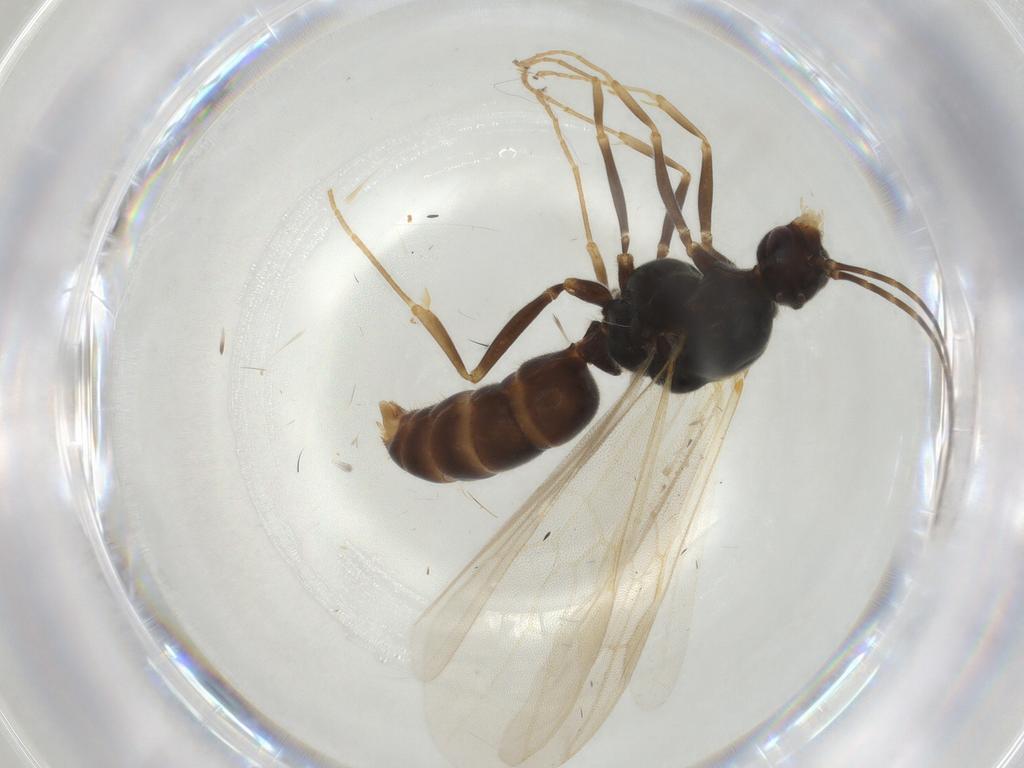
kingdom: Animalia
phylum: Arthropoda
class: Insecta
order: Hymenoptera
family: Formicidae
